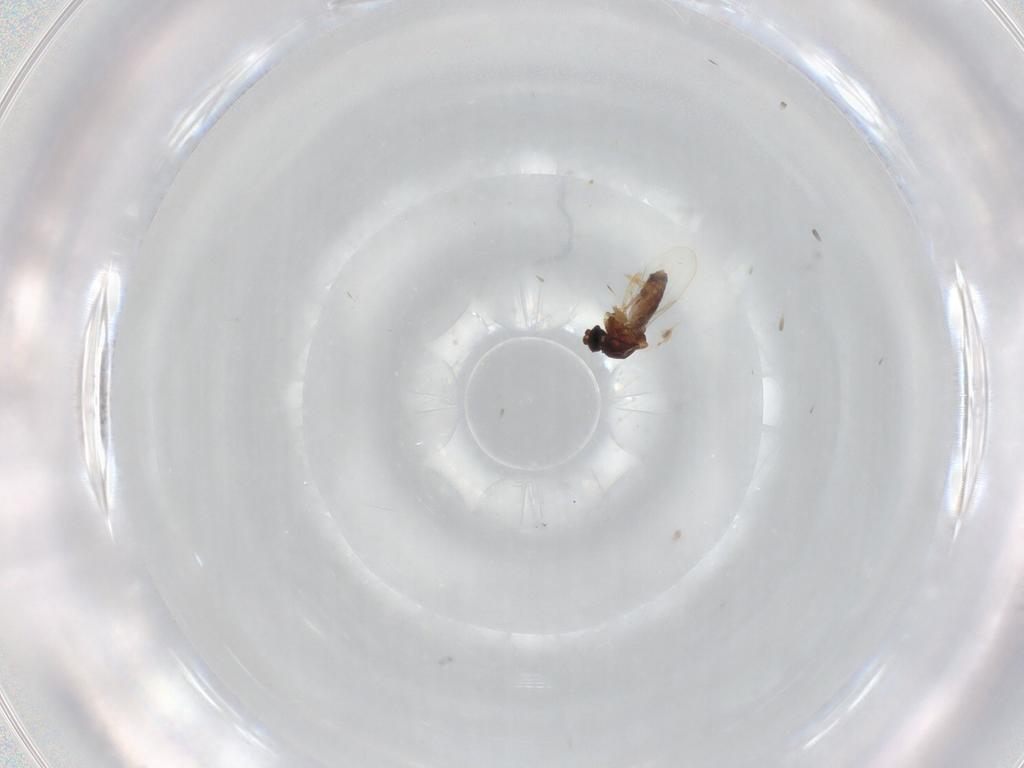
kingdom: Animalia
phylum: Arthropoda
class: Insecta
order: Diptera
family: Ceratopogonidae
